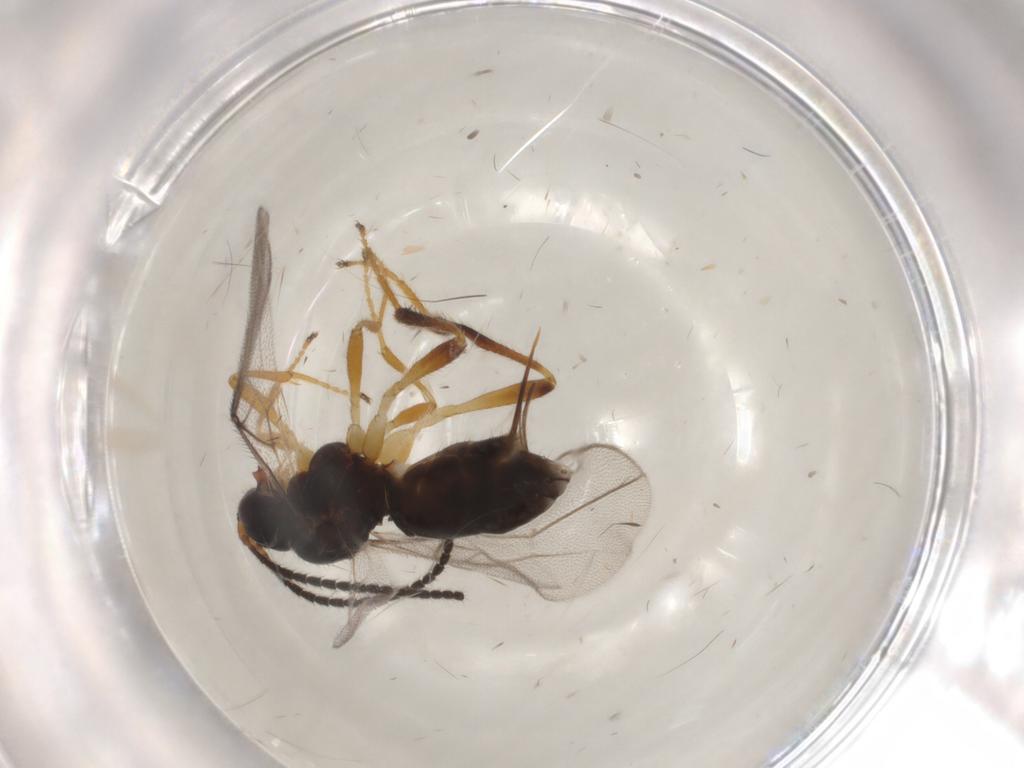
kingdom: Animalia
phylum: Arthropoda
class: Insecta
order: Hymenoptera
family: Braconidae
